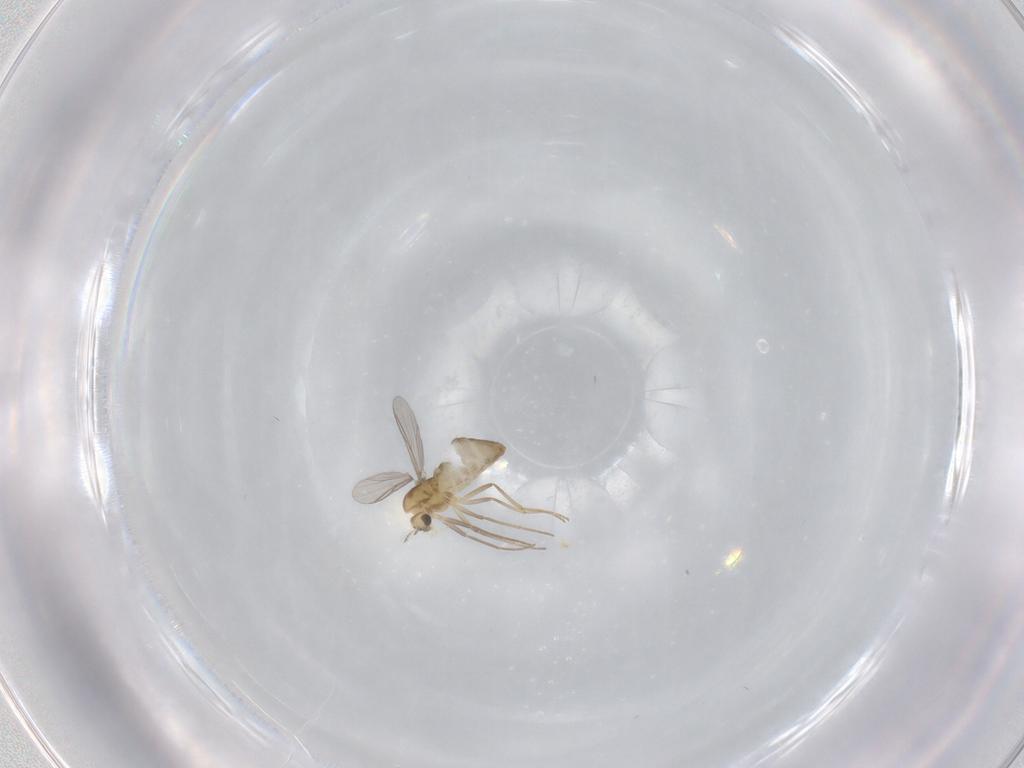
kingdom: Animalia
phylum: Arthropoda
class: Insecta
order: Diptera
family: Chironomidae
